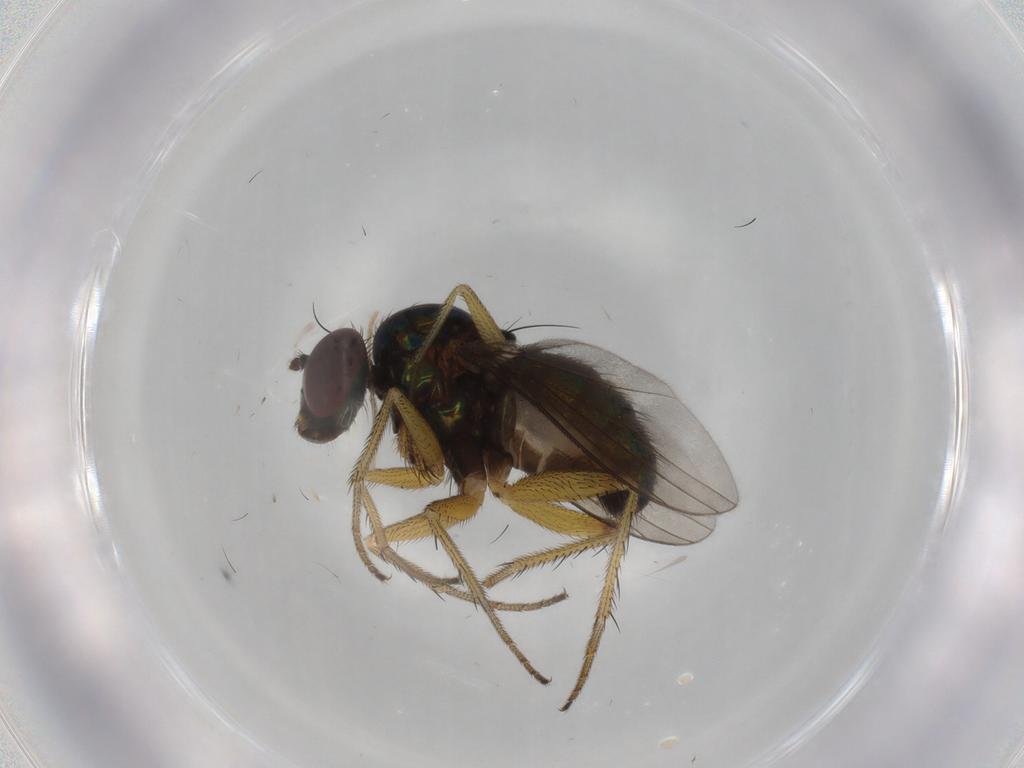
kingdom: Animalia
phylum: Arthropoda
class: Insecta
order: Diptera
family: Dolichopodidae
